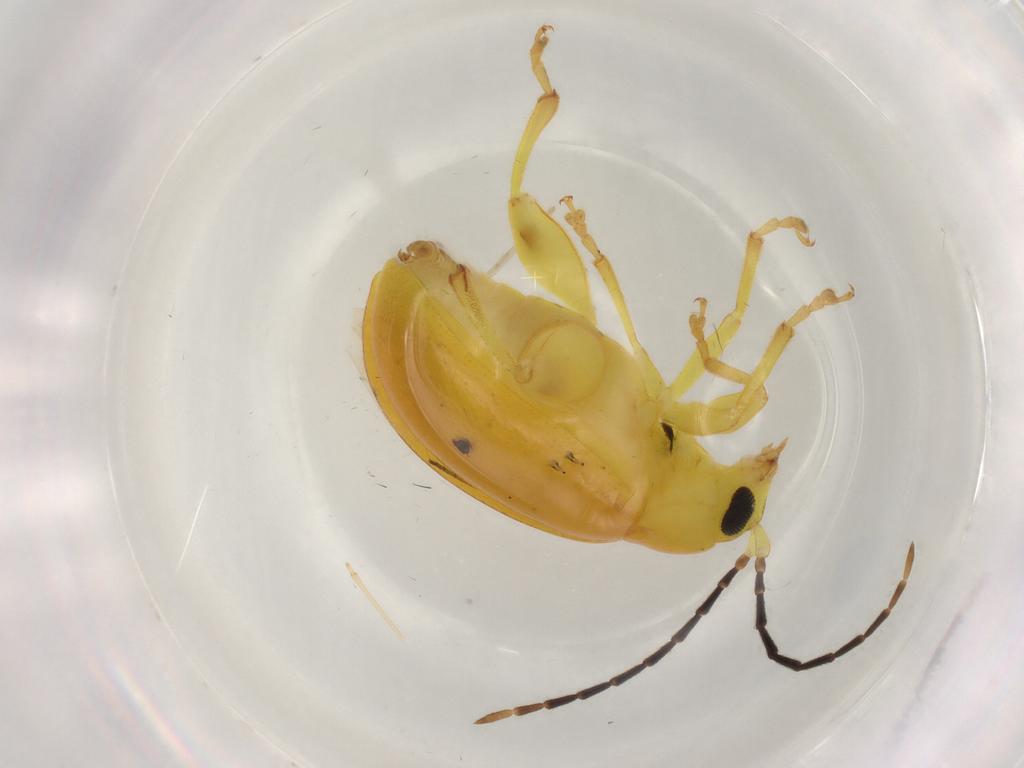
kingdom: Animalia
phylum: Arthropoda
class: Insecta
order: Coleoptera
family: Chrysomelidae
